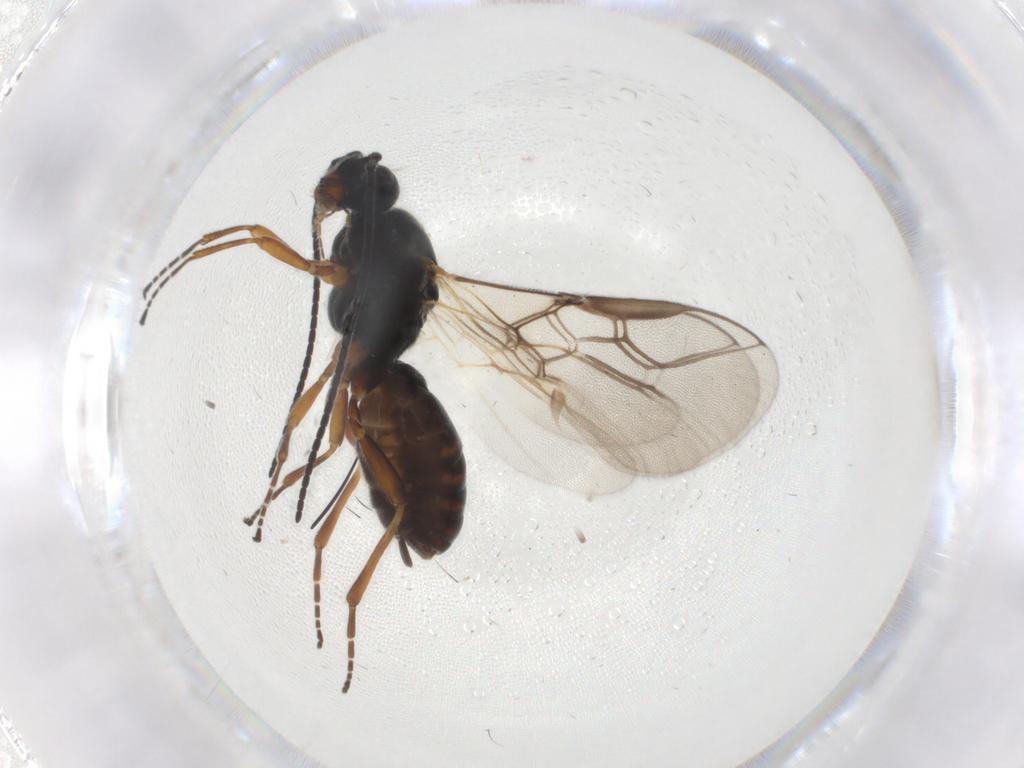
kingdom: Animalia
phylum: Arthropoda
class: Insecta
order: Hymenoptera
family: Braconidae
